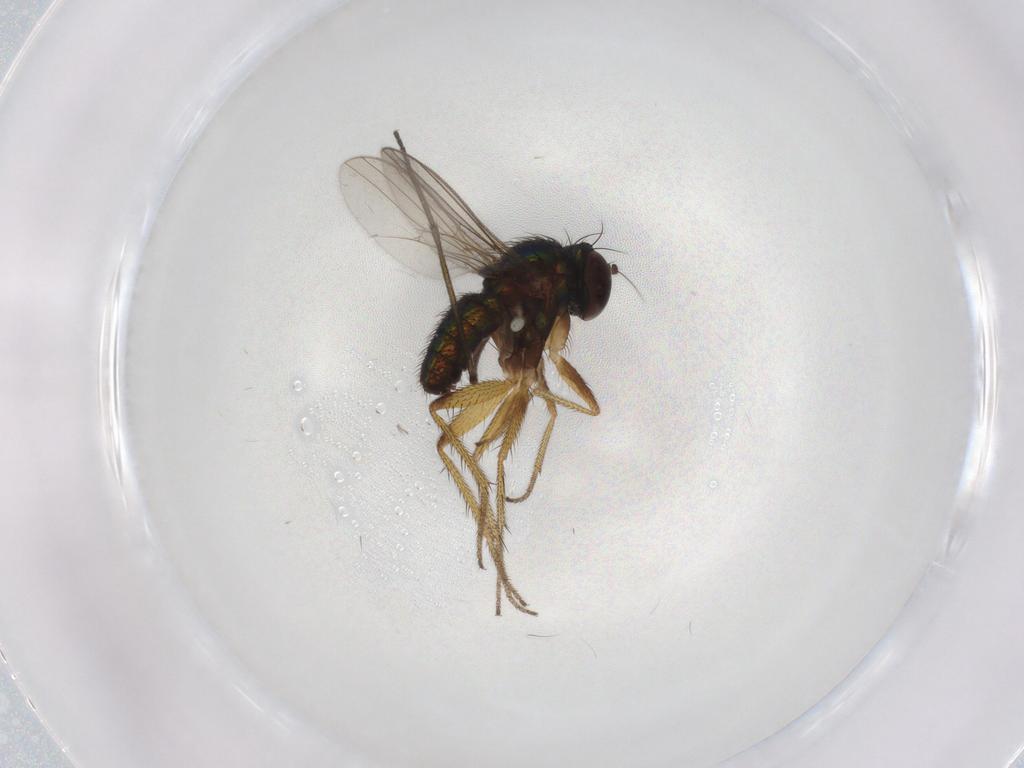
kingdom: Animalia
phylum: Arthropoda
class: Insecta
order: Diptera
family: Dolichopodidae
